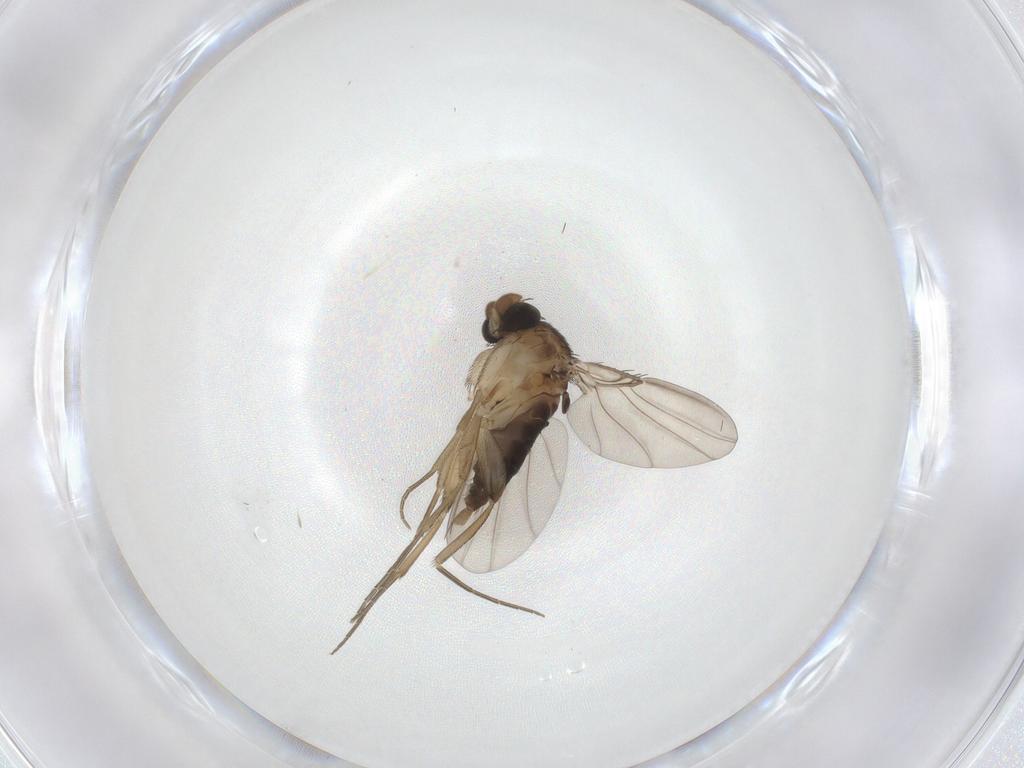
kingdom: Animalia
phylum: Arthropoda
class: Insecta
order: Diptera
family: Phoridae
